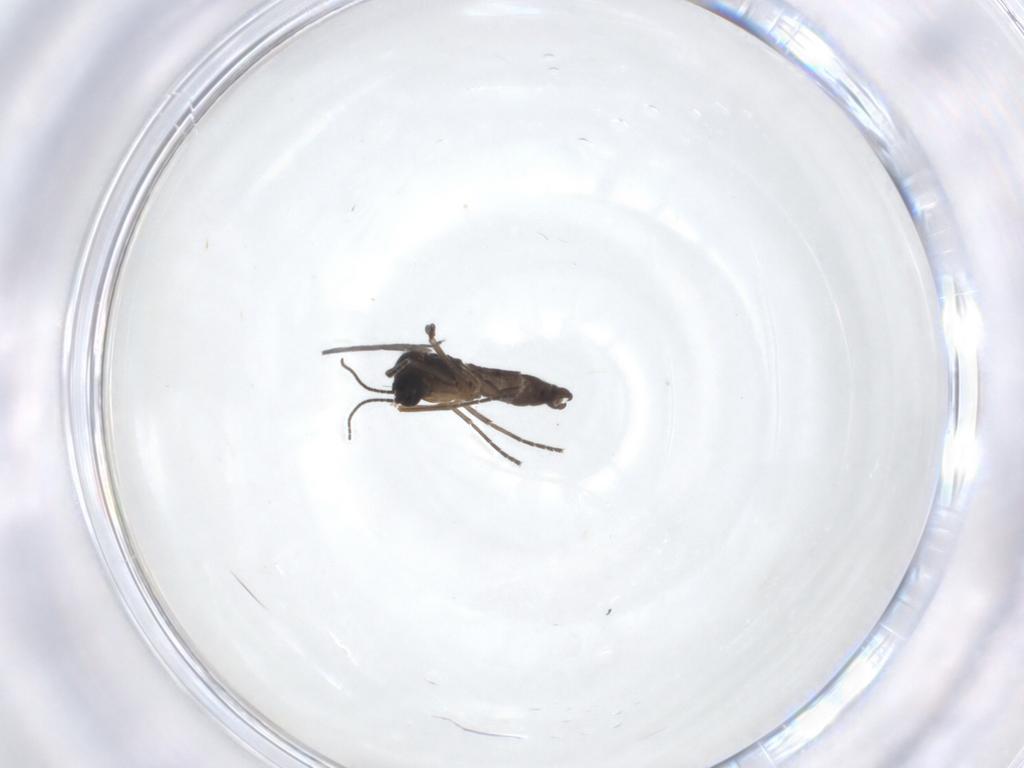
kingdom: Animalia
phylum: Arthropoda
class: Insecta
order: Diptera
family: Sciaridae
